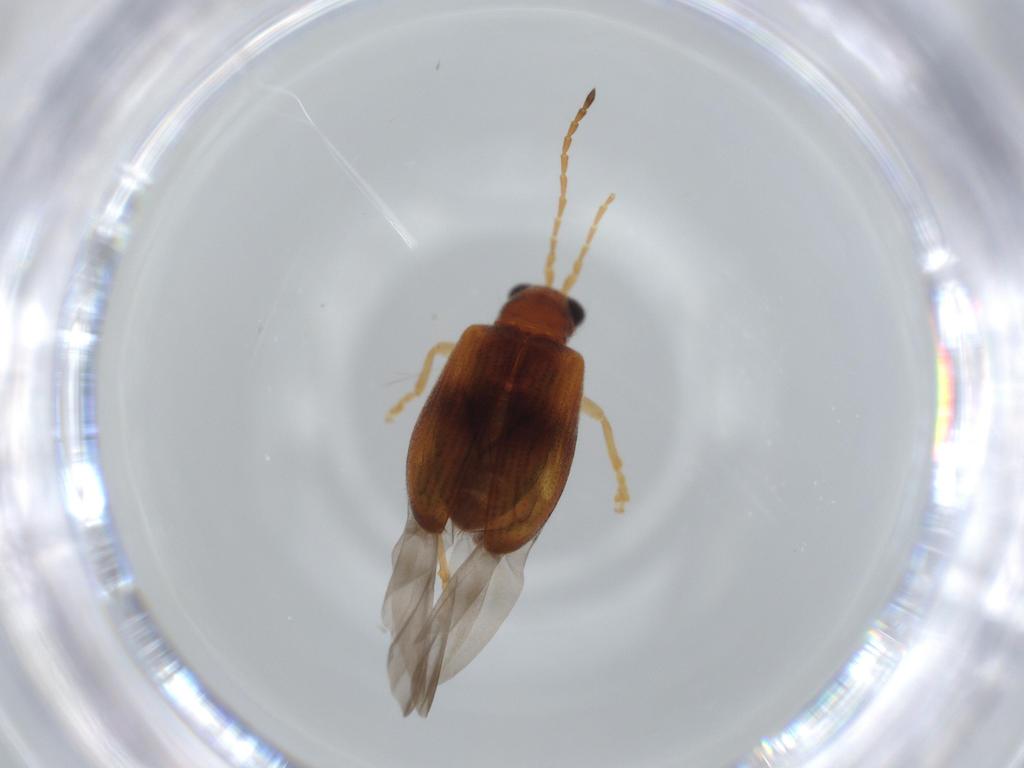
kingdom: Animalia
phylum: Arthropoda
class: Insecta
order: Coleoptera
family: Chrysomelidae
